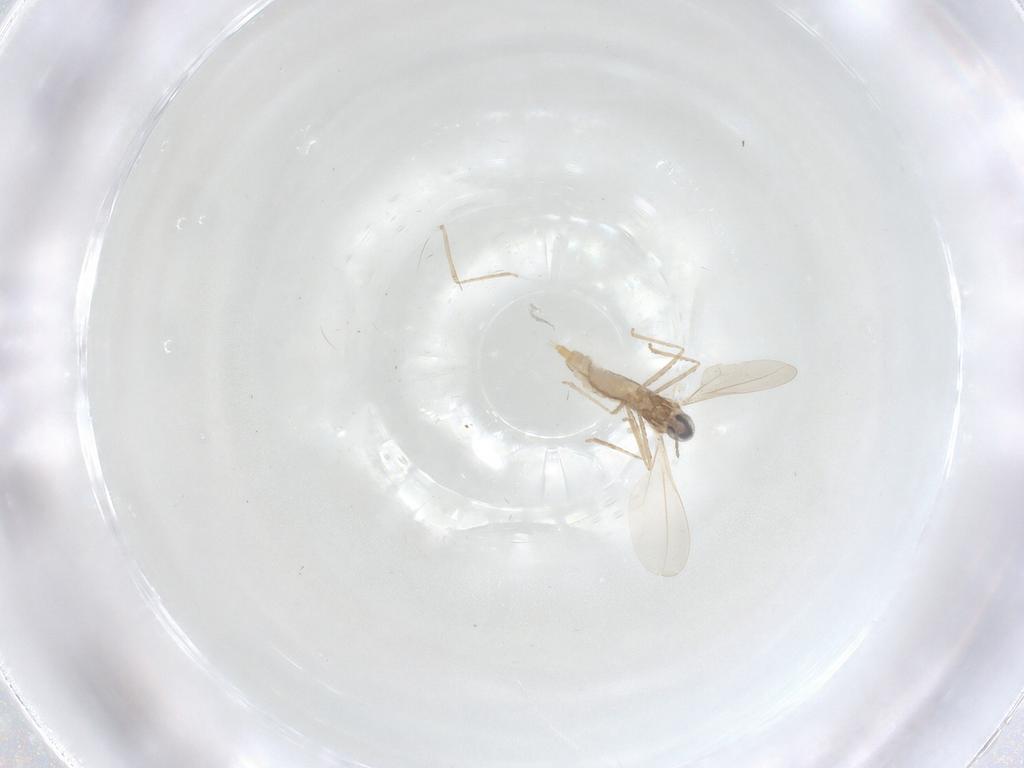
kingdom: Animalia
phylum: Arthropoda
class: Insecta
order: Diptera
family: Cecidomyiidae
